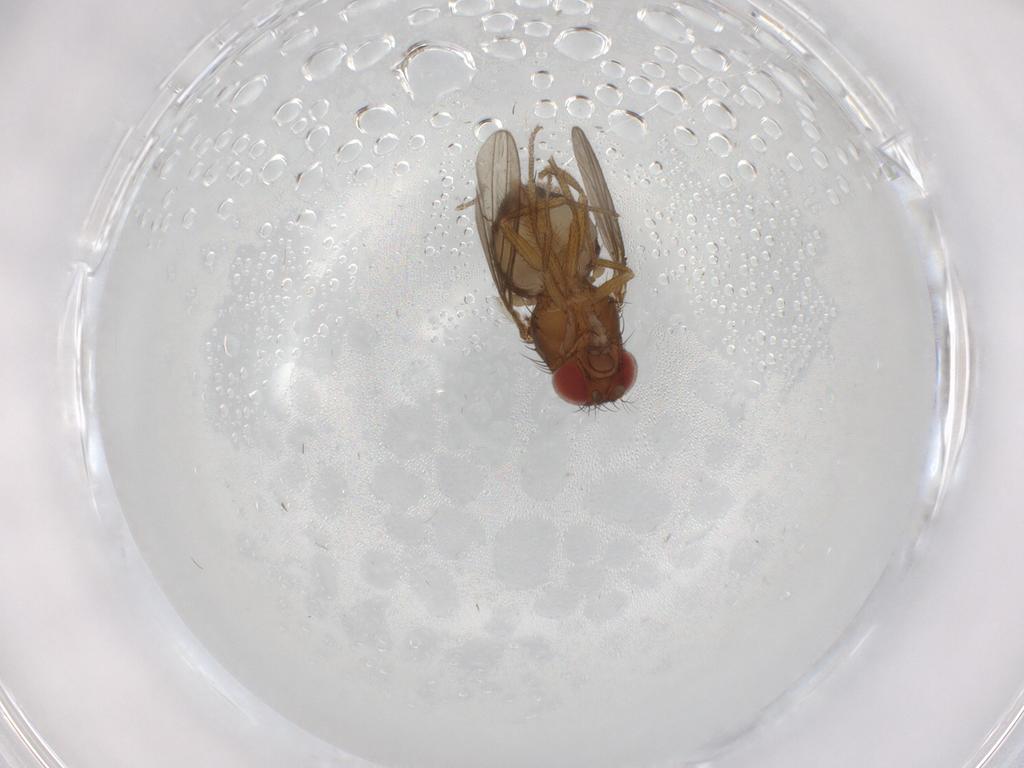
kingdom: Animalia
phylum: Arthropoda
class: Insecta
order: Diptera
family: Drosophilidae
